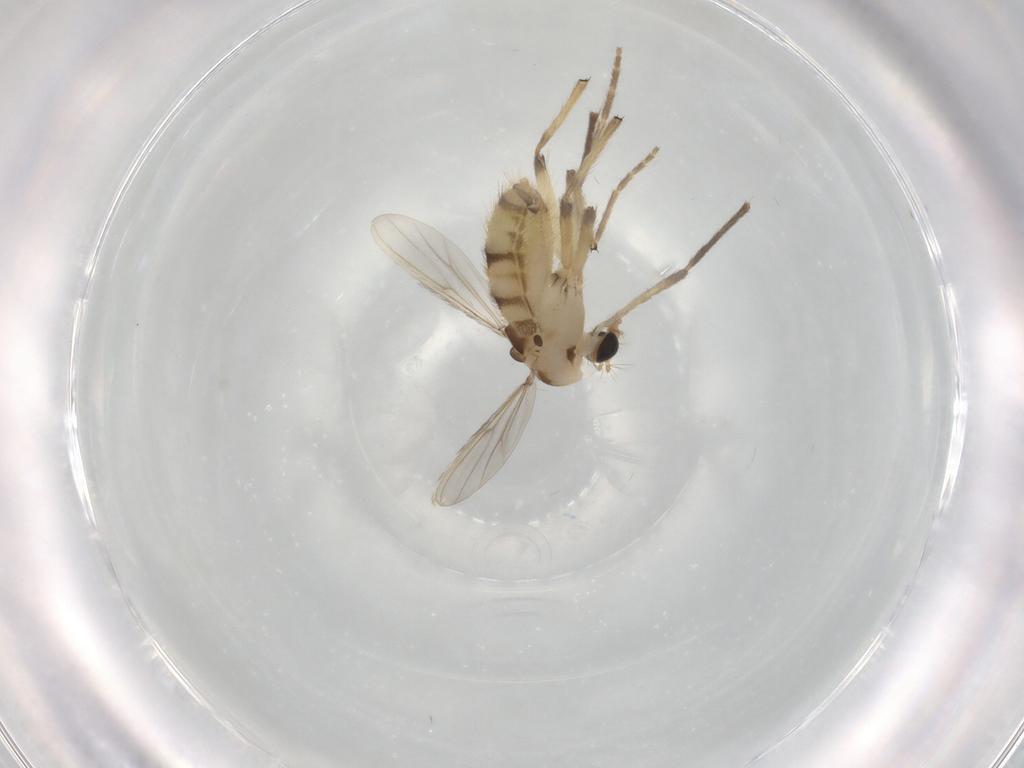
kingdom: Animalia
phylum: Arthropoda
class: Insecta
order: Diptera
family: Chironomidae
